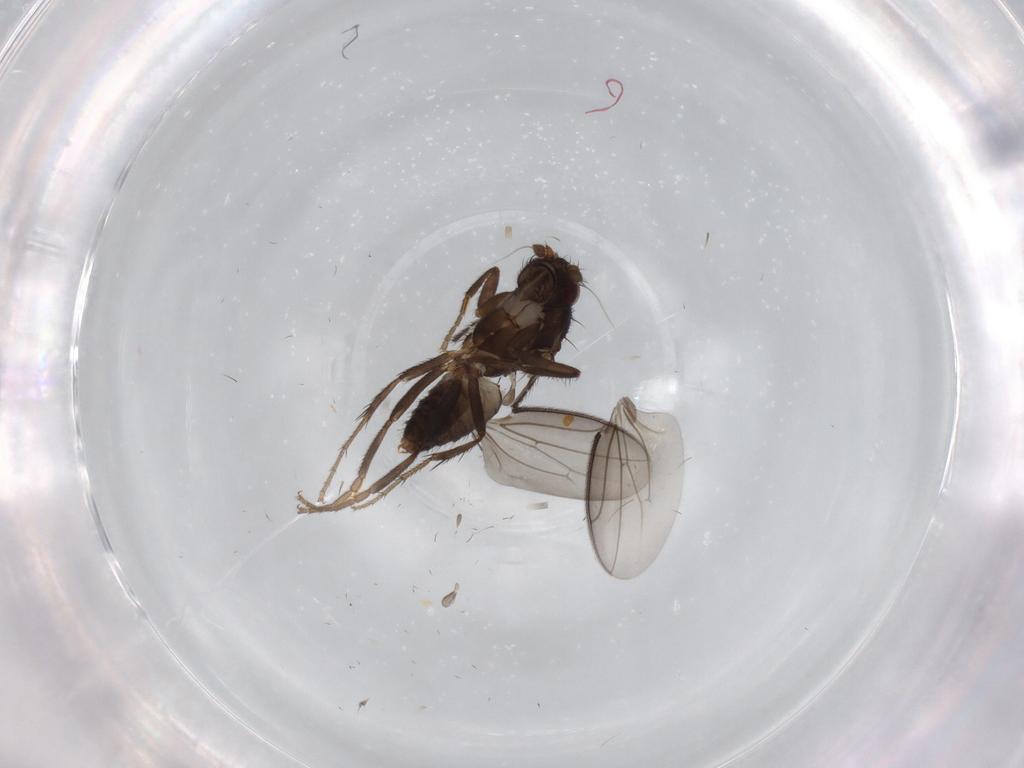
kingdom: Animalia
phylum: Arthropoda
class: Insecta
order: Diptera
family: Sphaeroceridae
